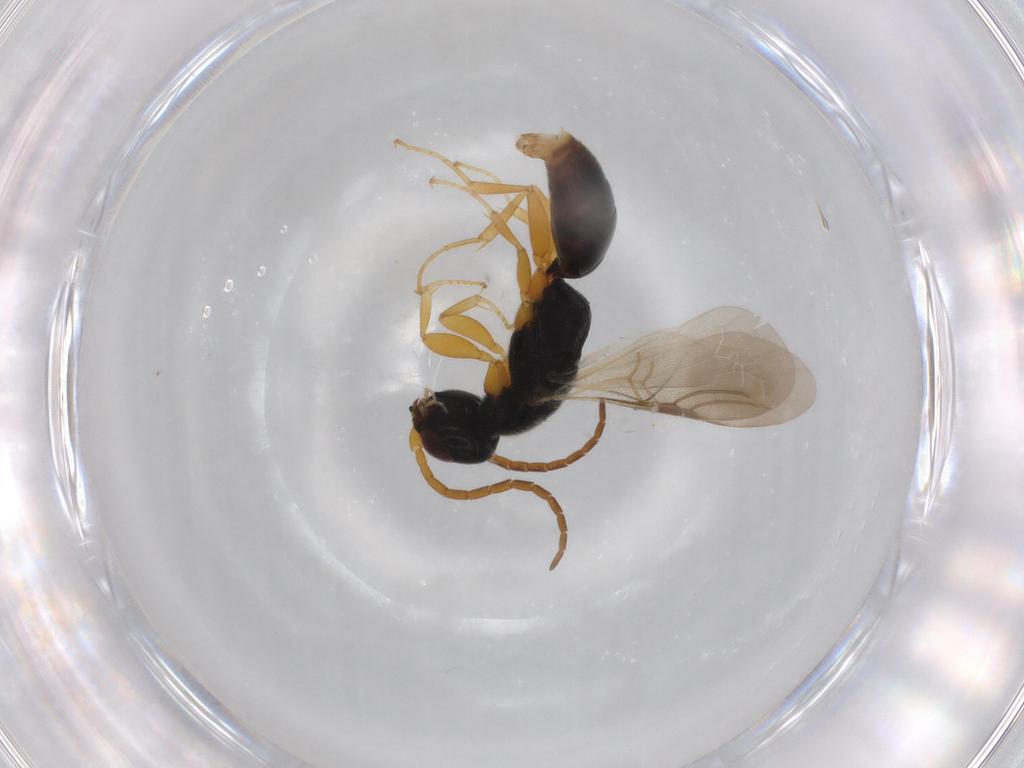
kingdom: Animalia
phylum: Arthropoda
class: Insecta
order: Hymenoptera
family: Bethylidae
